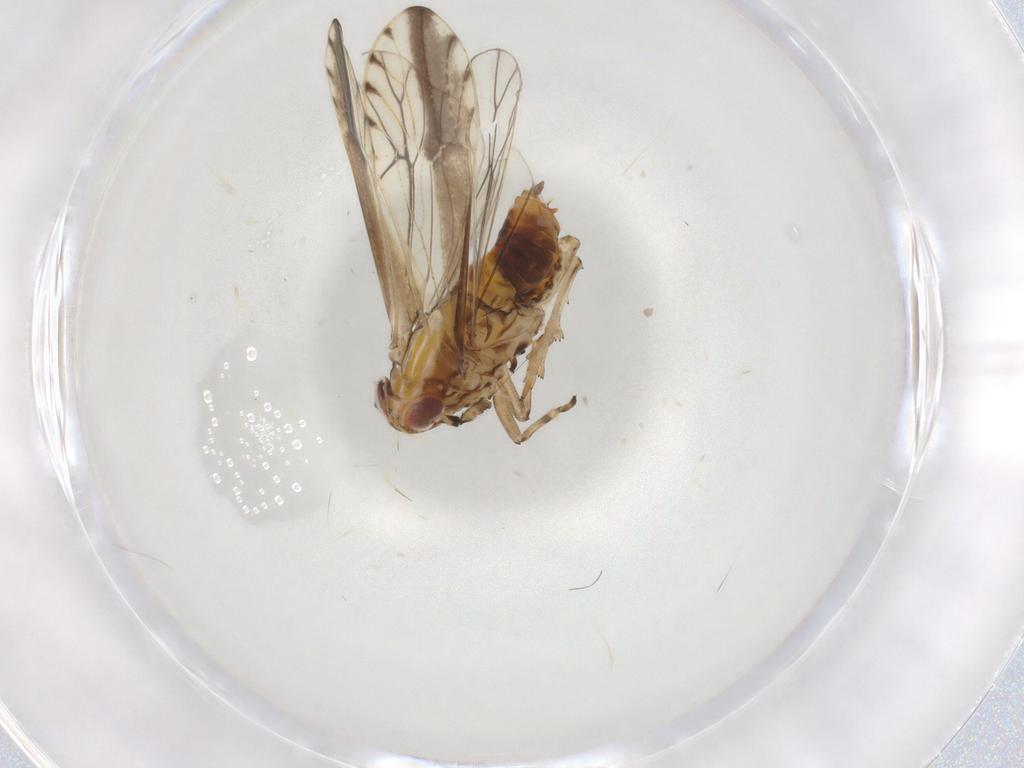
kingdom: Animalia
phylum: Arthropoda
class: Insecta
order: Hemiptera
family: Delphacidae
